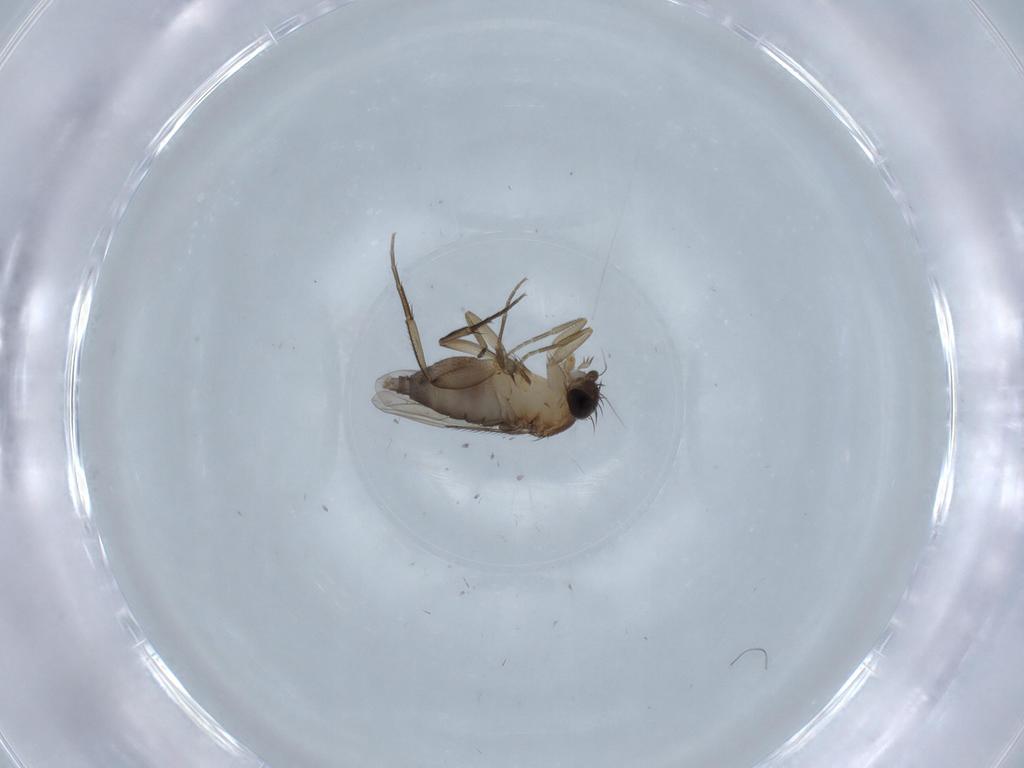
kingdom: Animalia
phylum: Arthropoda
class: Insecta
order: Diptera
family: Phoridae
